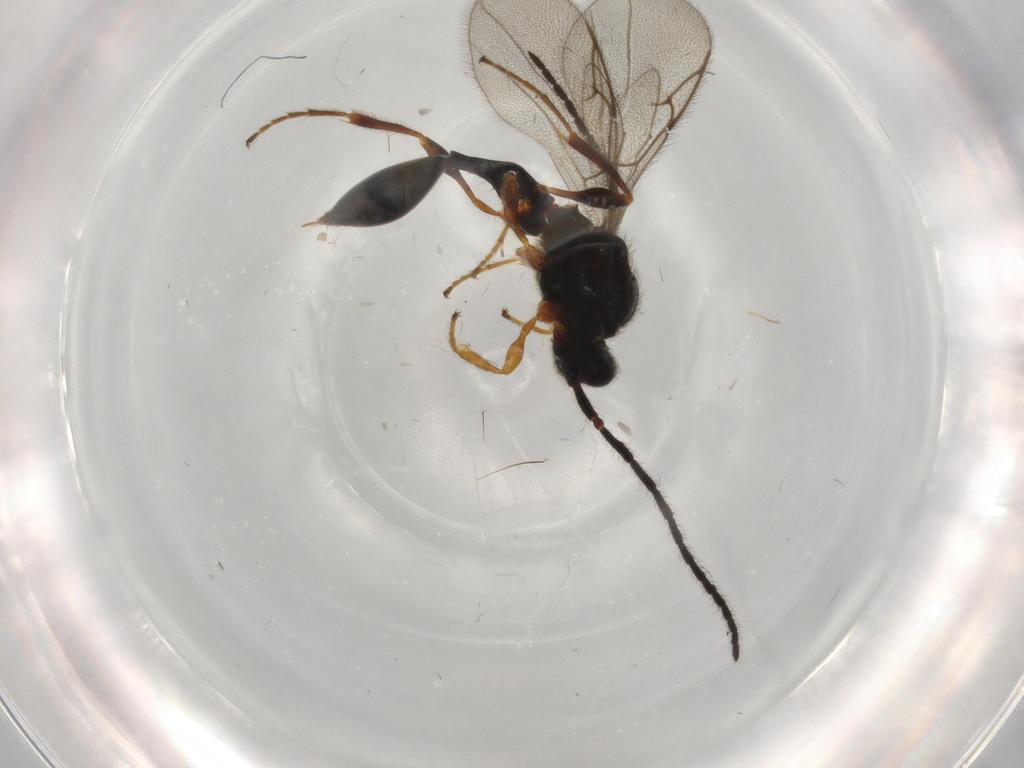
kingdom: Animalia
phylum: Arthropoda
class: Insecta
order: Hymenoptera
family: Diapriidae
